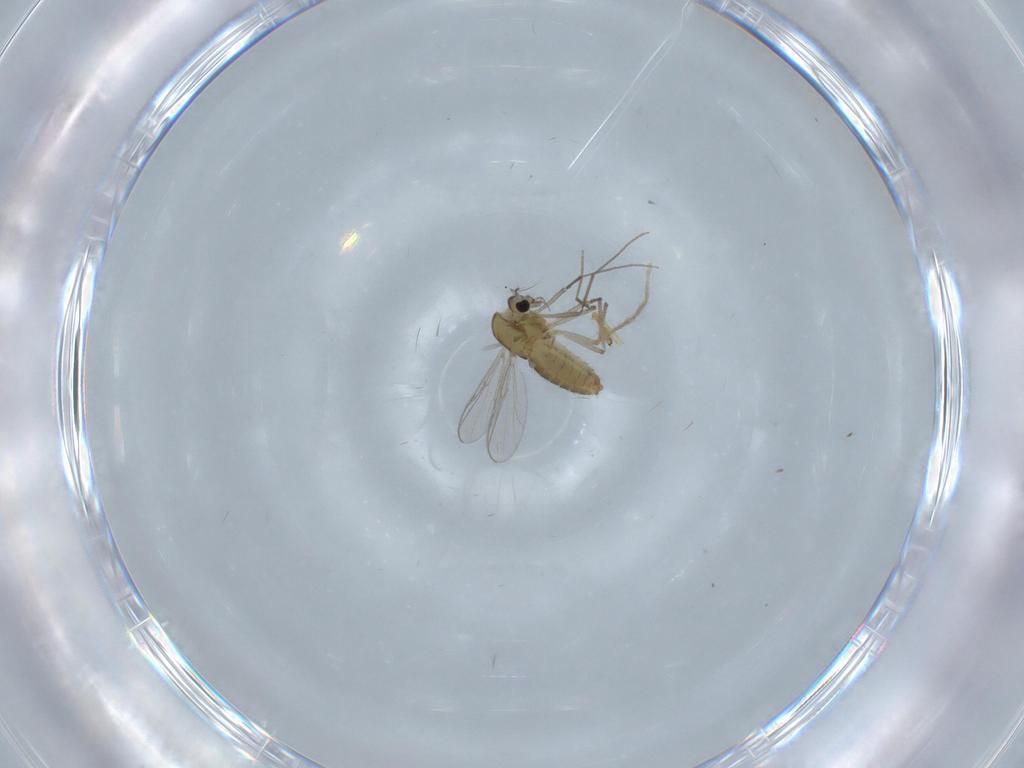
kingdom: Animalia
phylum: Arthropoda
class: Insecta
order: Diptera
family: Chironomidae
